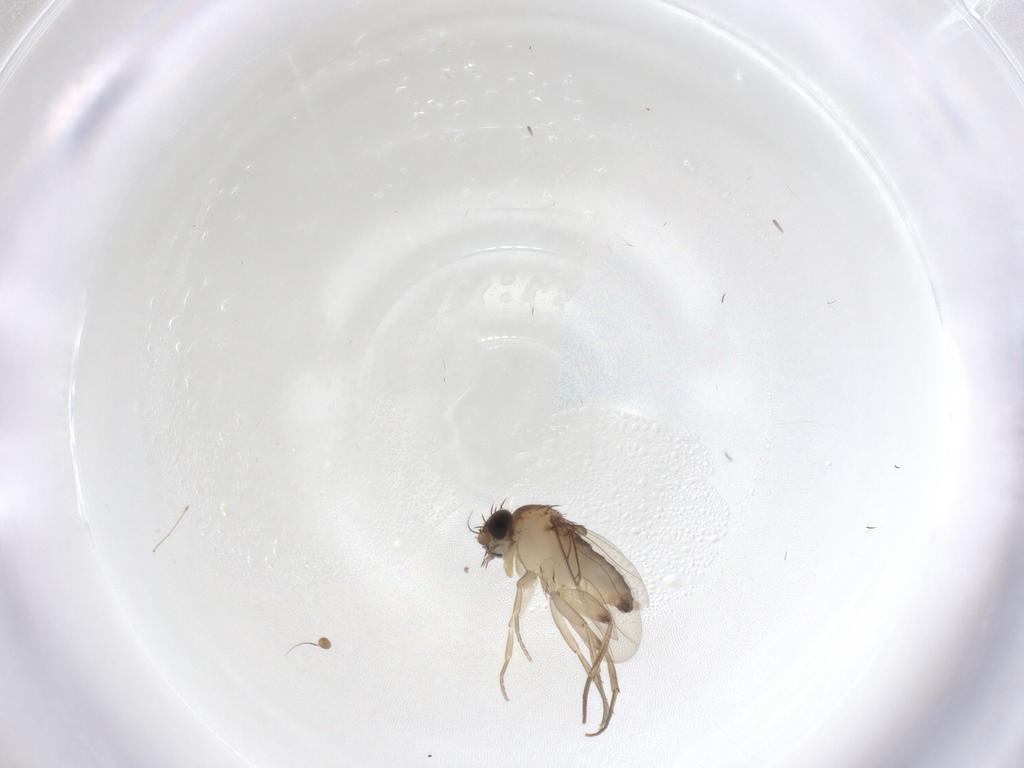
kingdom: Animalia
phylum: Arthropoda
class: Insecta
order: Diptera
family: Phoridae
